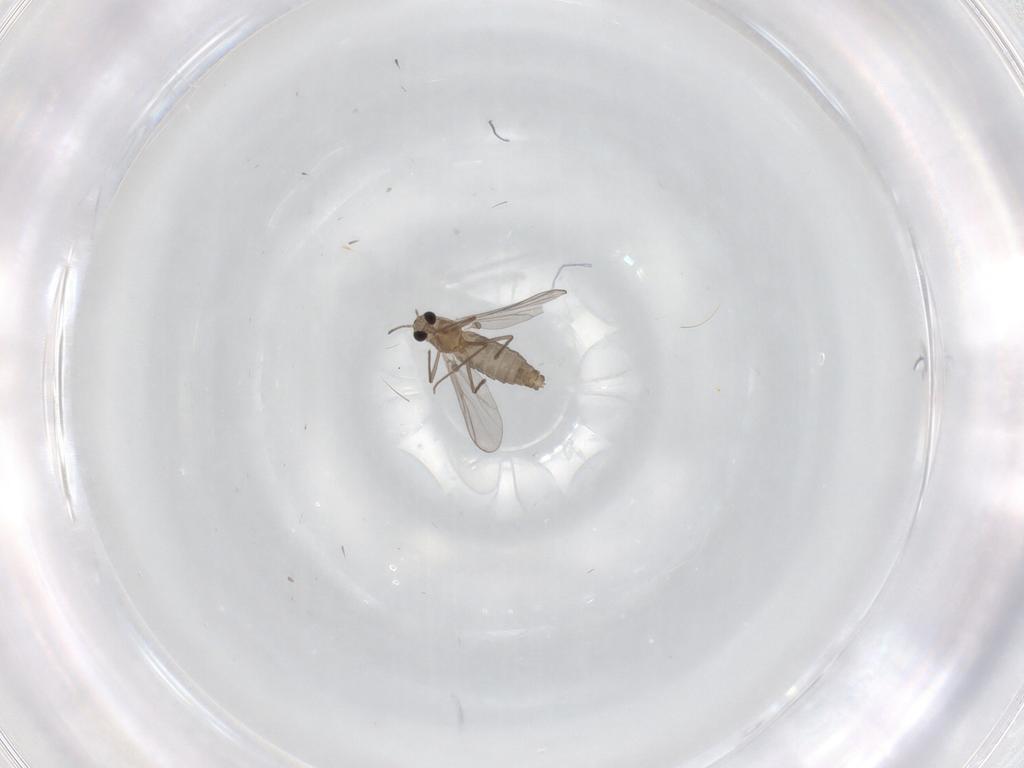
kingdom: Animalia
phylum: Arthropoda
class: Insecta
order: Diptera
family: Chironomidae
